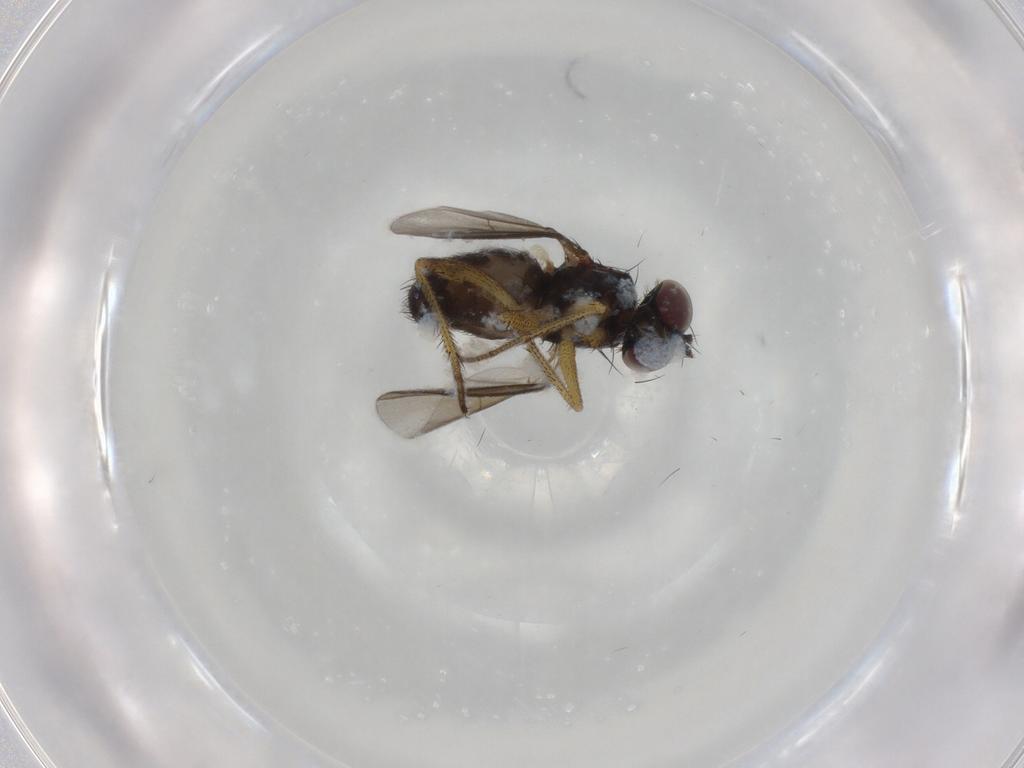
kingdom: Animalia
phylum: Arthropoda
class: Insecta
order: Diptera
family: Dolichopodidae
